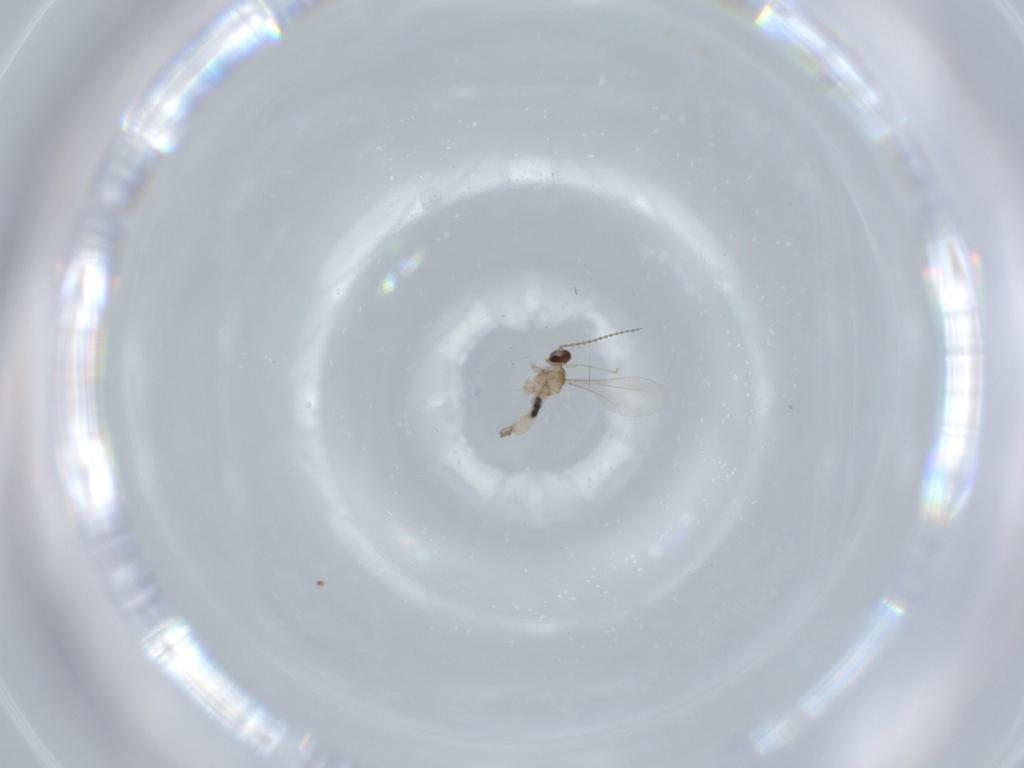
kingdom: Animalia
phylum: Arthropoda
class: Insecta
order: Diptera
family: Cecidomyiidae
